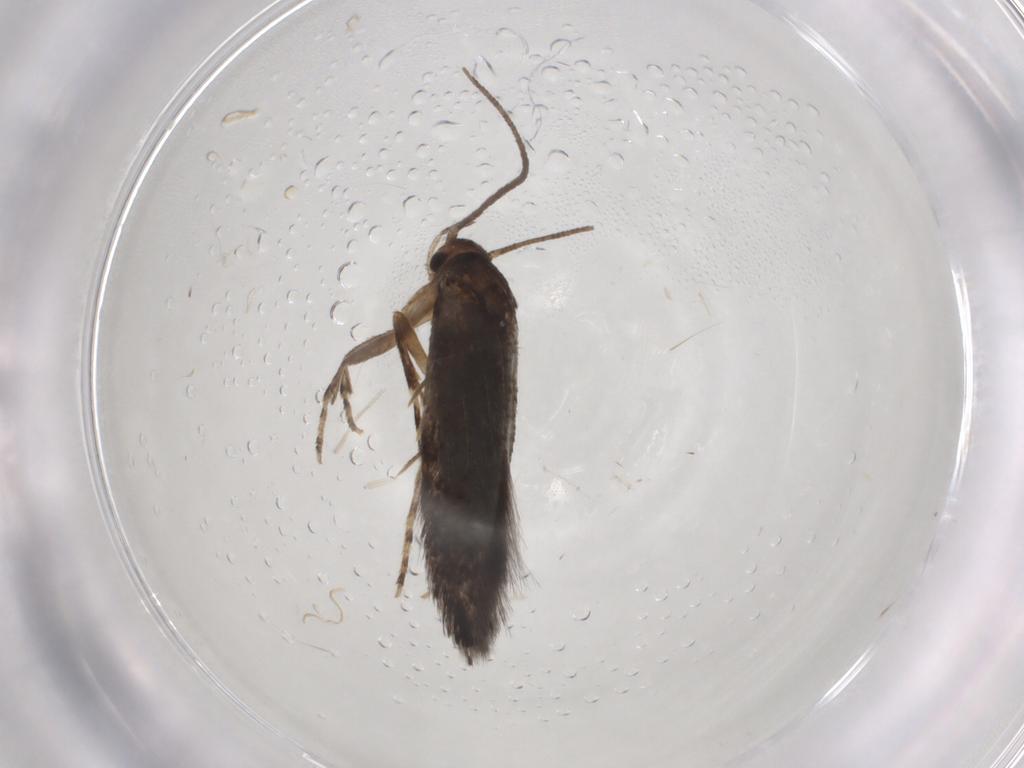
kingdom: Animalia
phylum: Arthropoda
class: Insecta
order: Lepidoptera
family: Elachistidae
